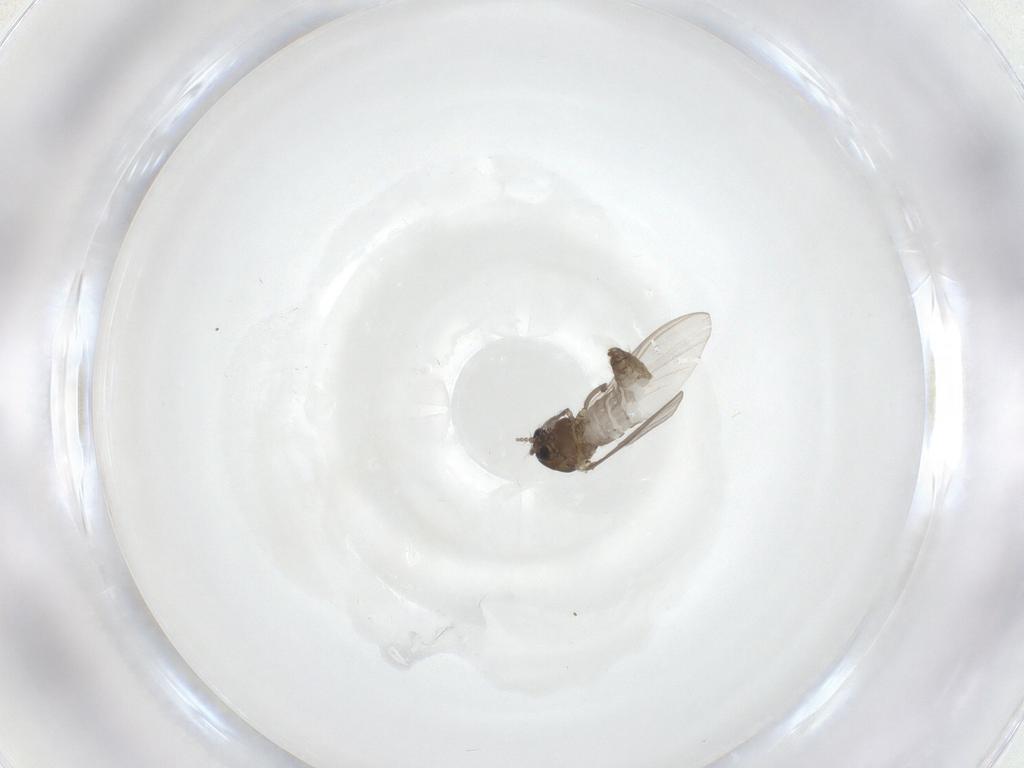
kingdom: Animalia
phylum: Arthropoda
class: Insecta
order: Diptera
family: Chironomidae
